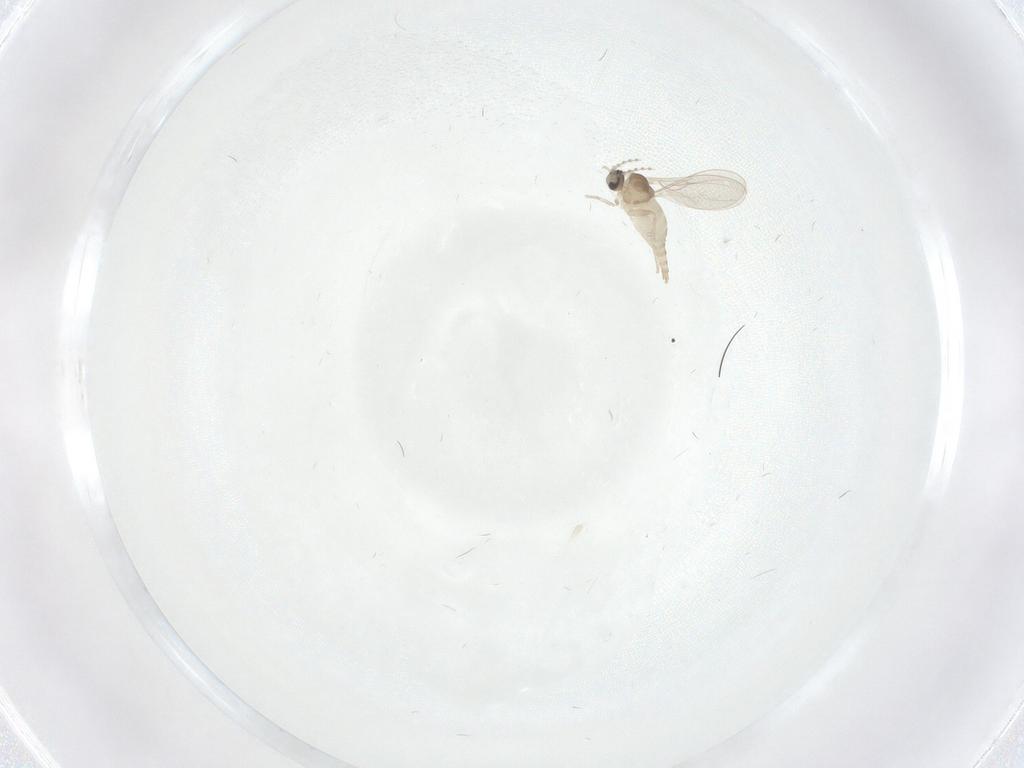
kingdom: Animalia
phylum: Arthropoda
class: Insecta
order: Diptera
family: Cecidomyiidae
